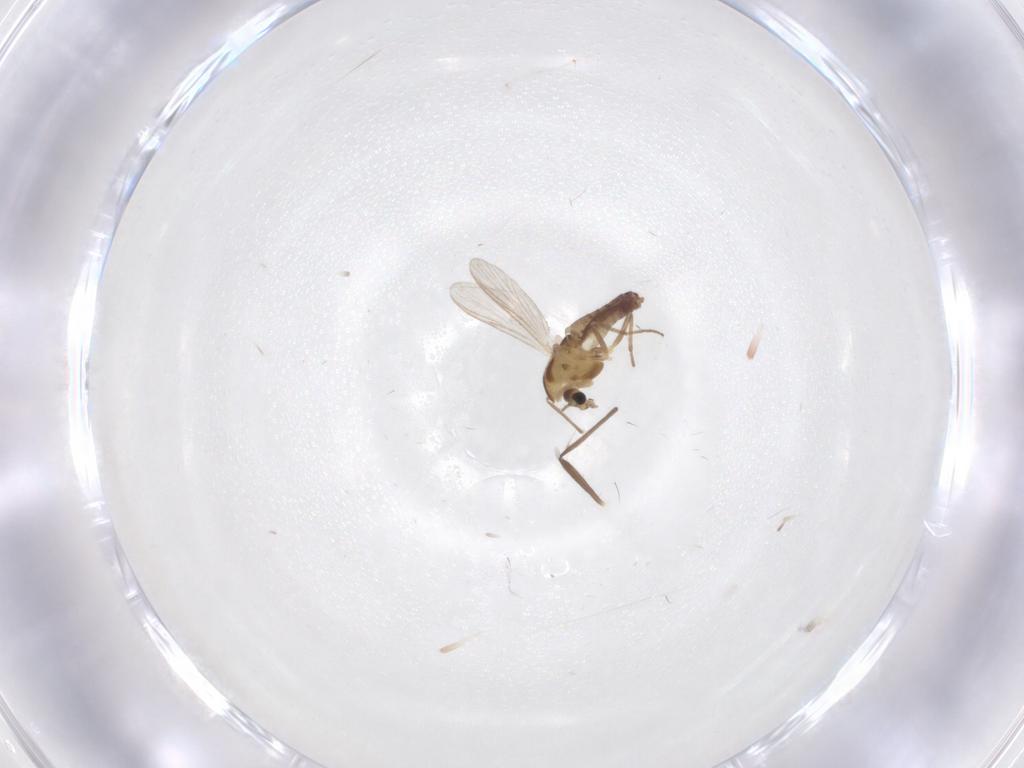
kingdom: Animalia
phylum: Arthropoda
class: Insecta
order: Diptera
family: Chironomidae
